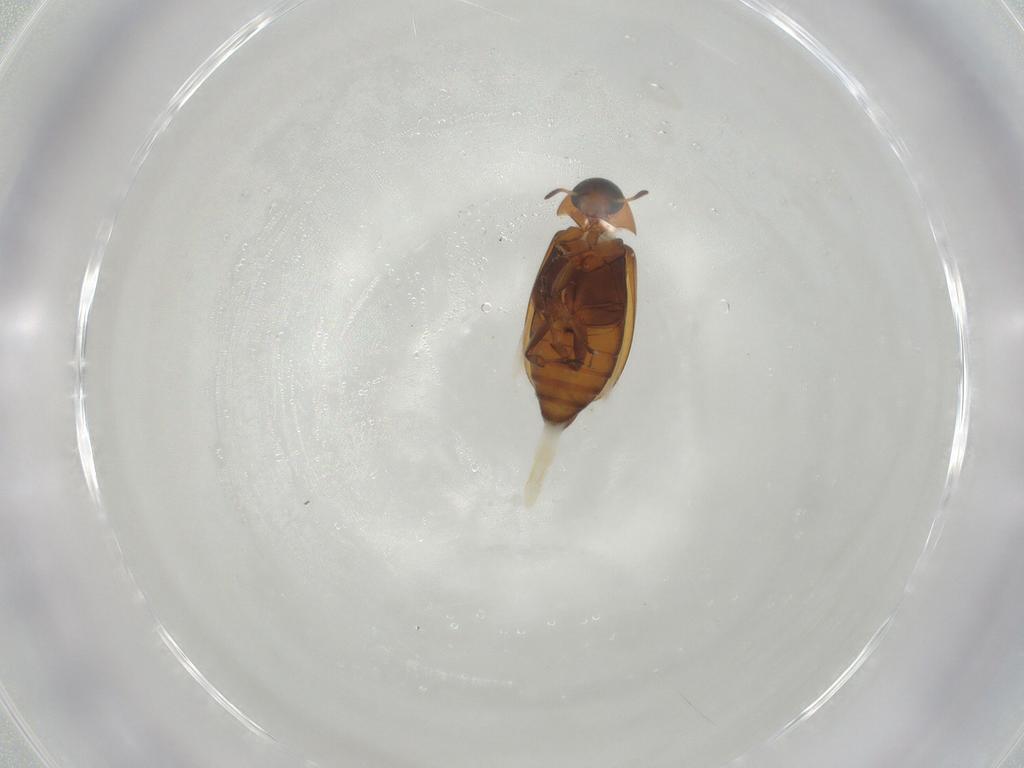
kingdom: Animalia
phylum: Arthropoda
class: Insecta
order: Coleoptera
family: Scraptiidae
